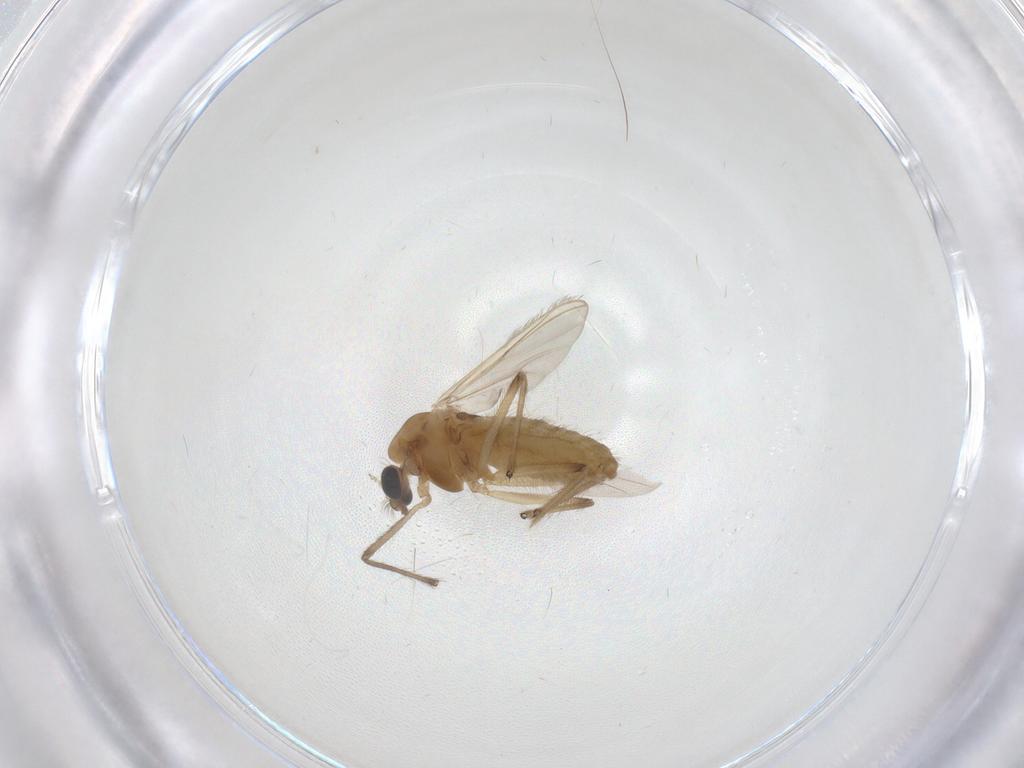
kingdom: Animalia
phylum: Arthropoda
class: Insecta
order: Diptera
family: Chironomidae
